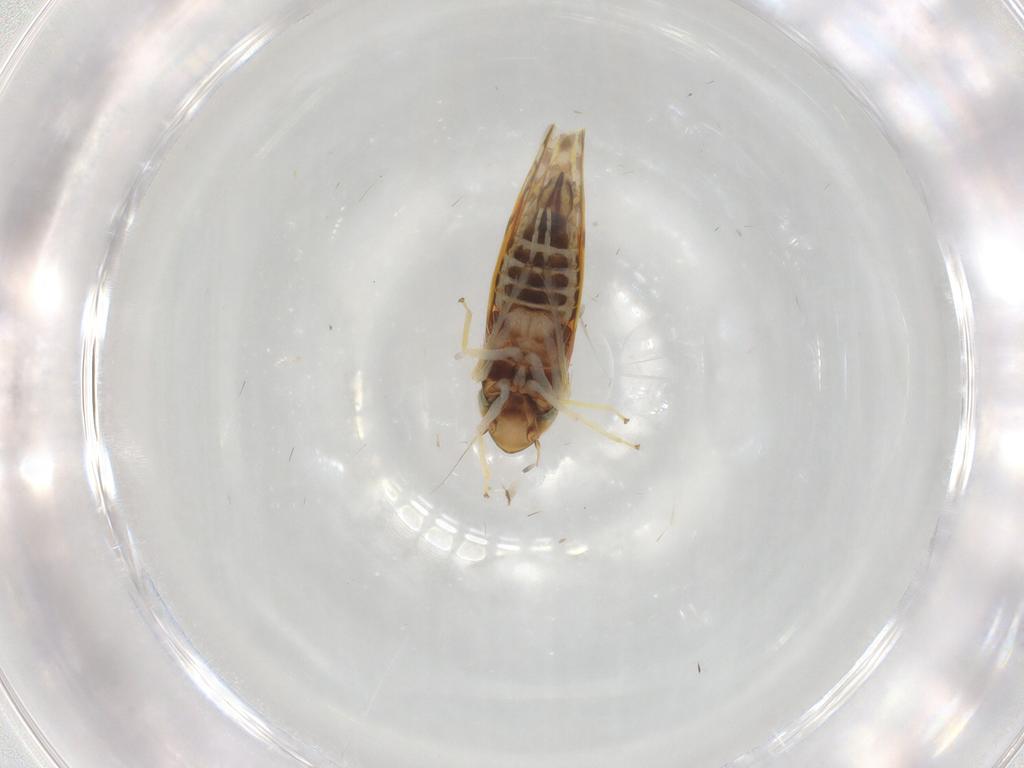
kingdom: Animalia
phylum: Arthropoda
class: Insecta
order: Hemiptera
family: Cicadellidae
